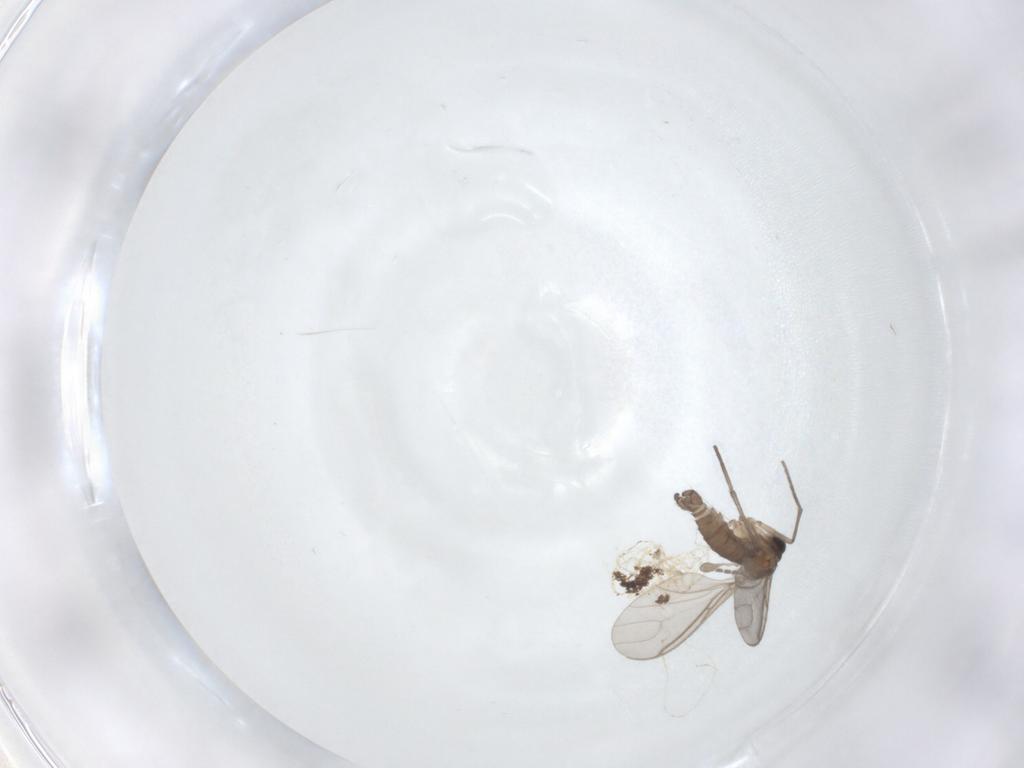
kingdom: Animalia
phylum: Arthropoda
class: Insecta
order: Diptera
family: Sciaridae
